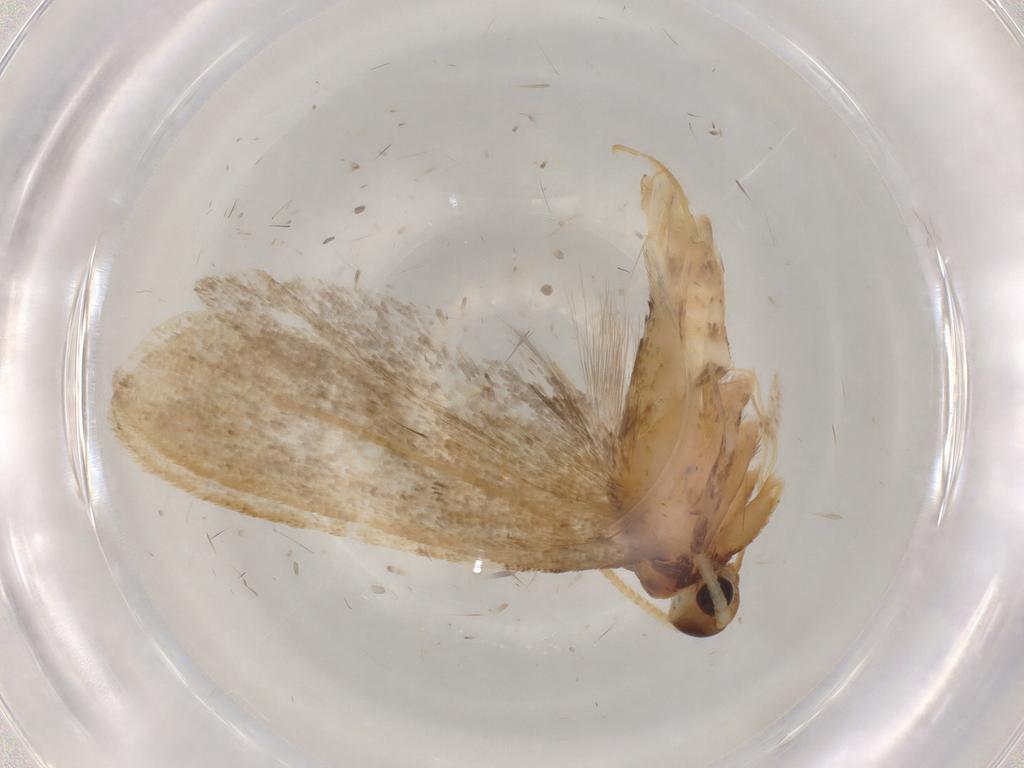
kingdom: Animalia
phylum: Arthropoda
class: Insecta
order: Lepidoptera
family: Lecithoceridae
